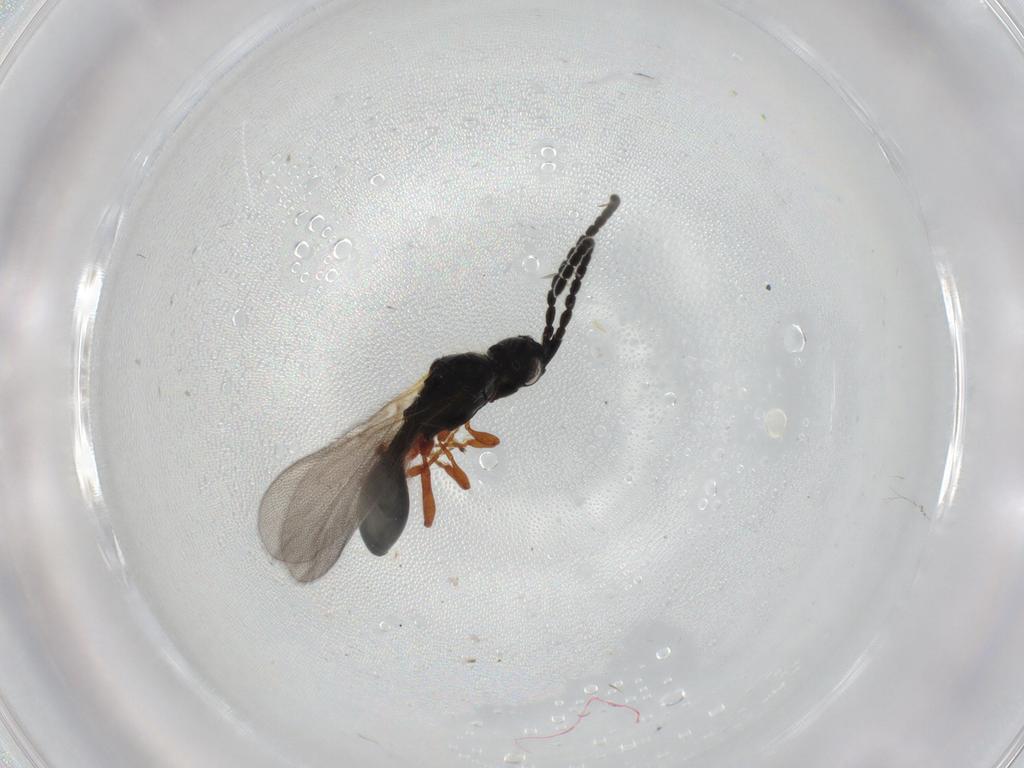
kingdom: Animalia
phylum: Arthropoda
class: Insecta
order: Hymenoptera
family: Diapriidae
